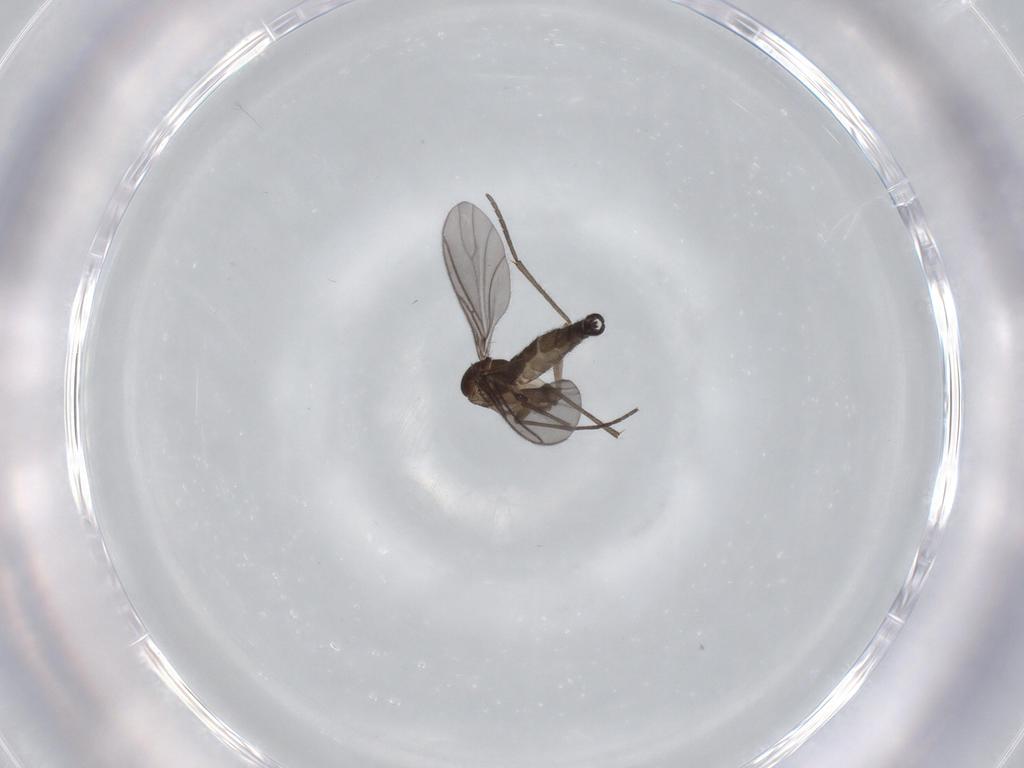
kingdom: Animalia
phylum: Arthropoda
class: Insecta
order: Diptera
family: Sciaridae
